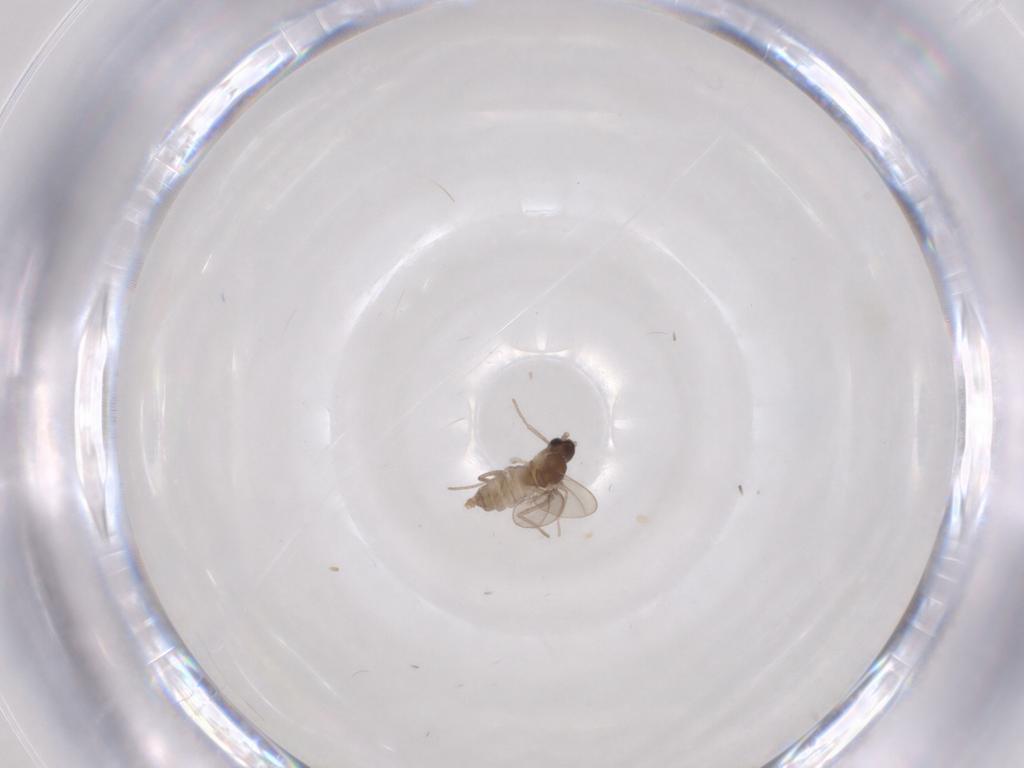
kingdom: Animalia
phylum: Arthropoda
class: Insecta
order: Diptera
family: Cecidomyiidae
